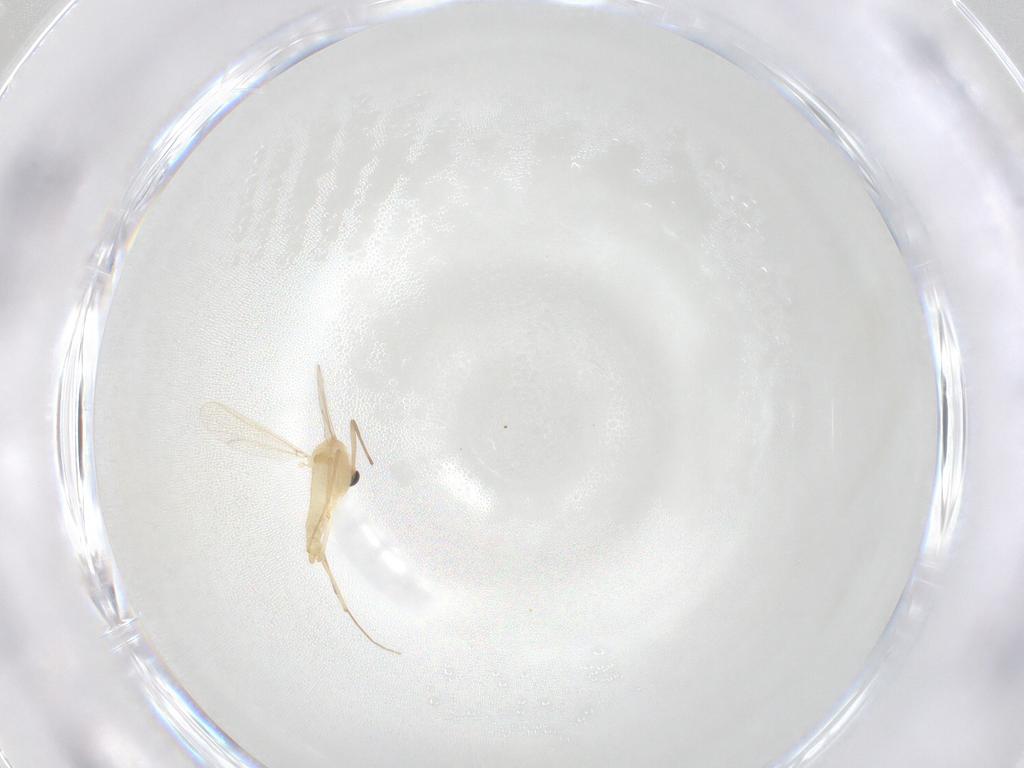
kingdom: Animalia
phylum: Arthropoda
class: Insecta
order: Diptera
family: Chironomidae
